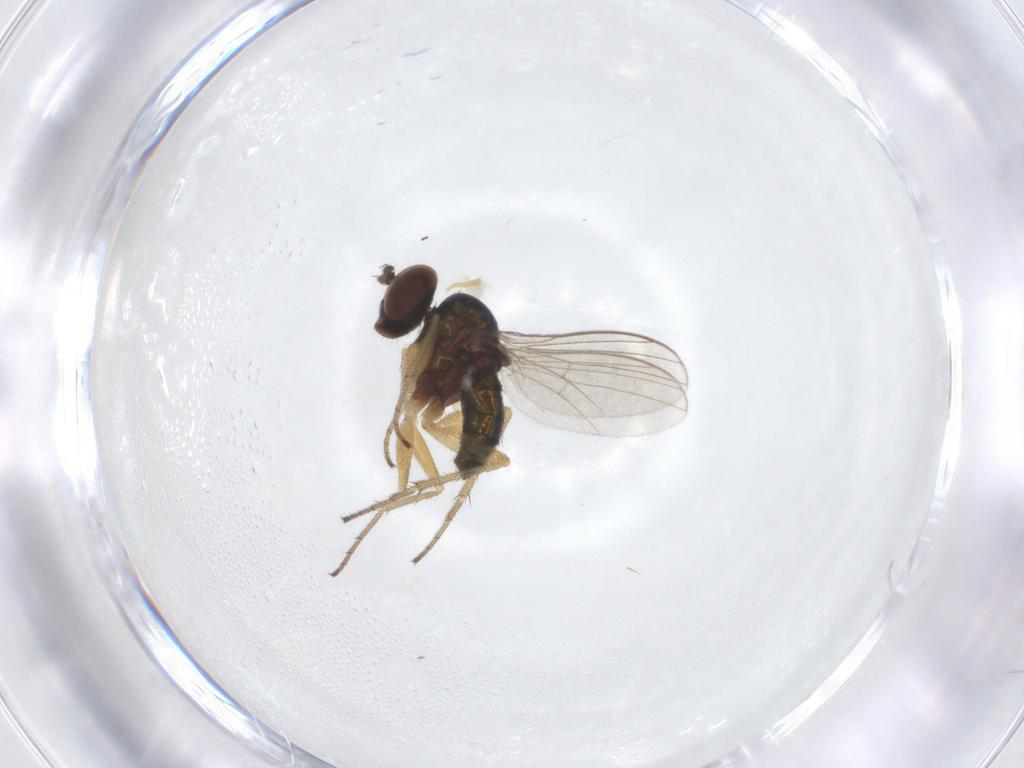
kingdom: Animalia
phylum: Arthropoda
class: Insecta
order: Diptera
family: Dolichopodidae
